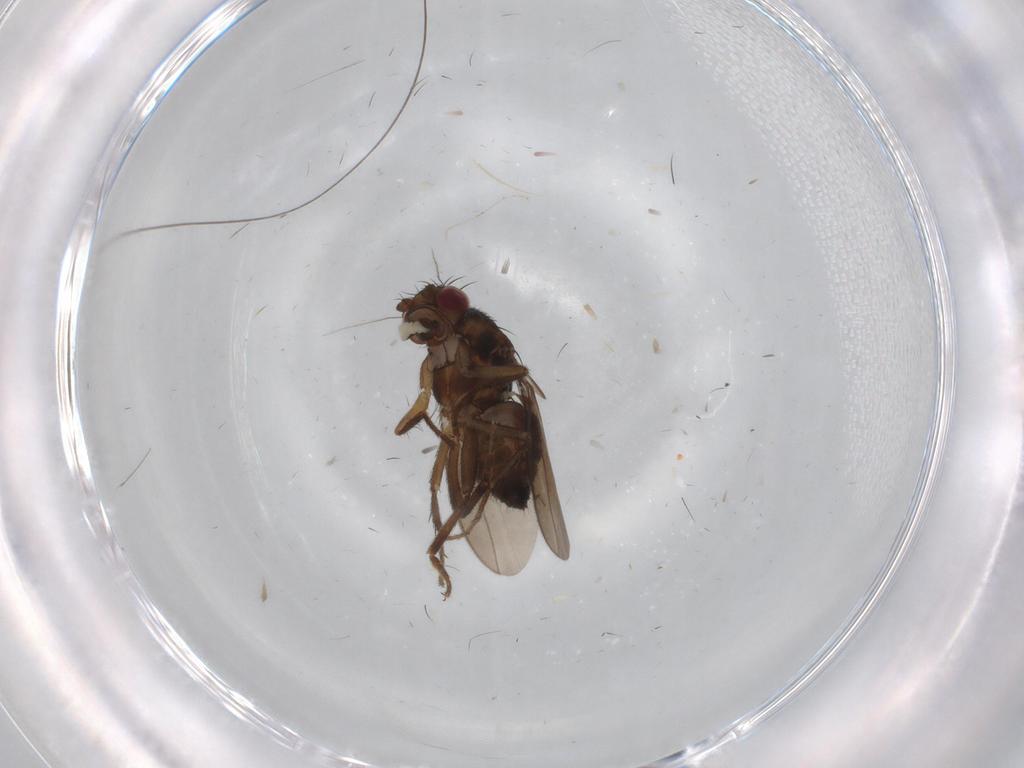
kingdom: Animalia
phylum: Arthropoda
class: Insecta
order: Diptera
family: Sphaeroceridae
